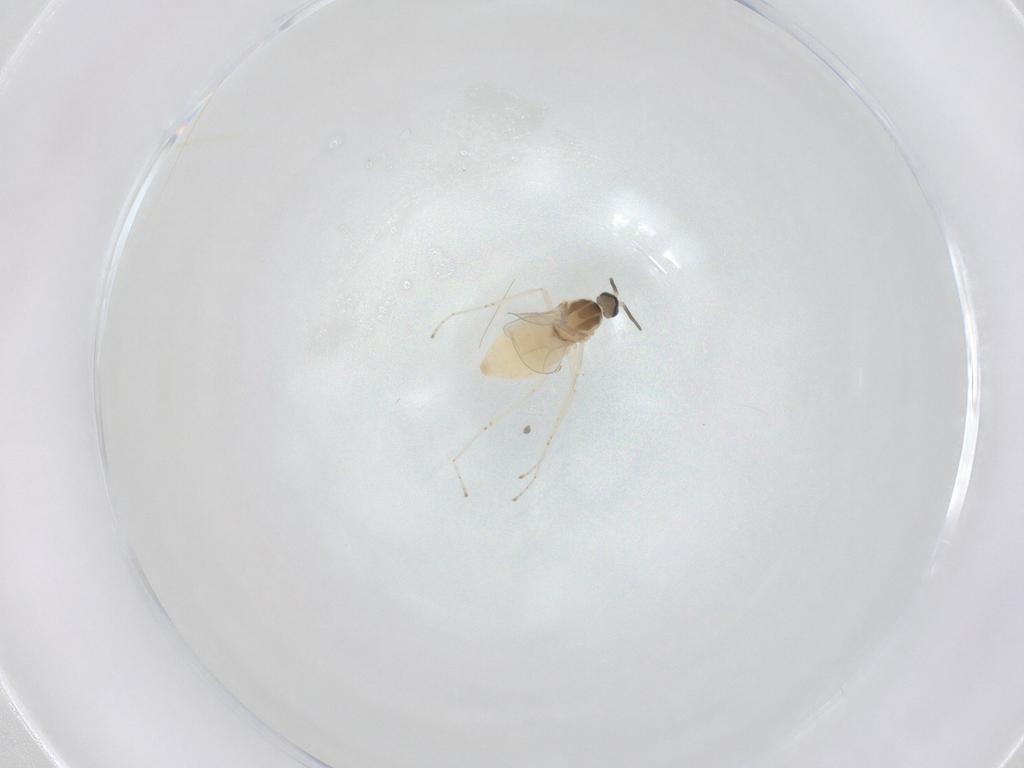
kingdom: Animalia
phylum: Arthropoda
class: Insecta
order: Diptera
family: Cecidomyiidae
